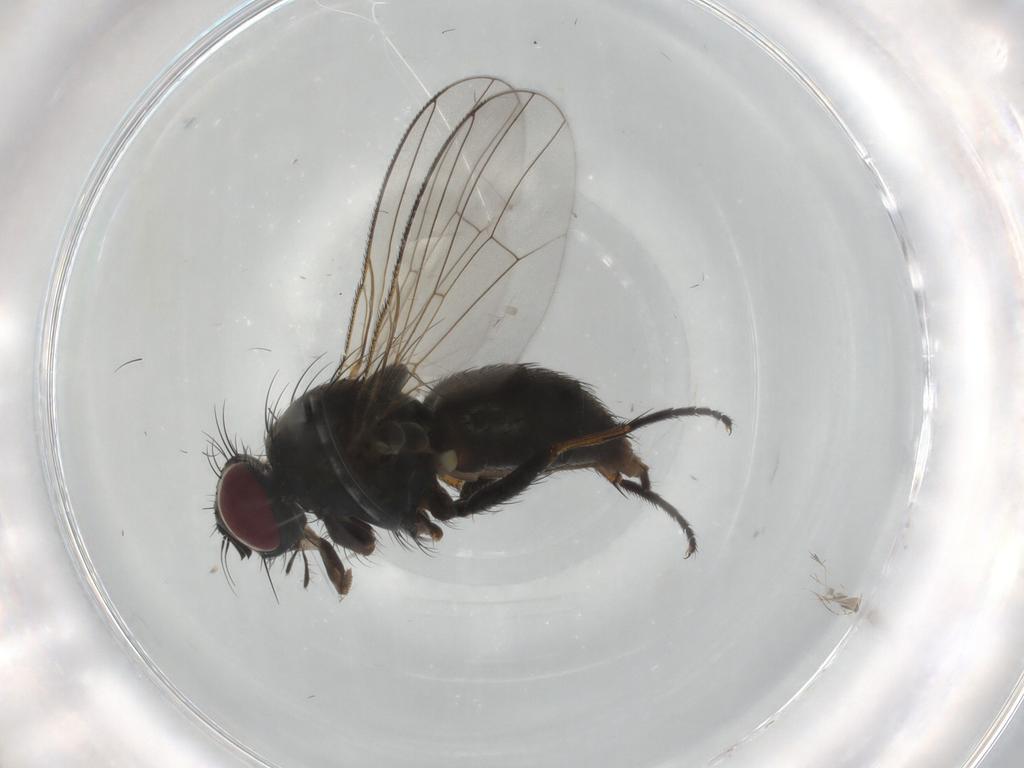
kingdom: Animalia
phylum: Arthropoda
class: Insecta
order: Diptera
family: Muscidae
